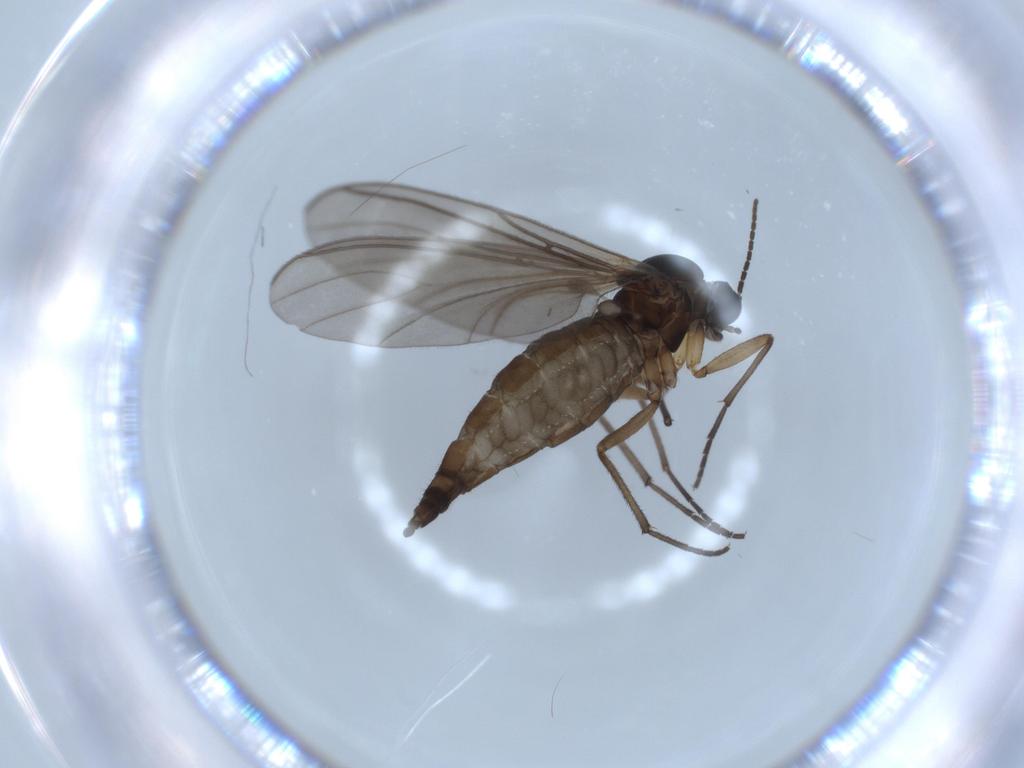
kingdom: Animalia
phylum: Arthropoda
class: Insecta
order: Diptera
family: Sciaridae
